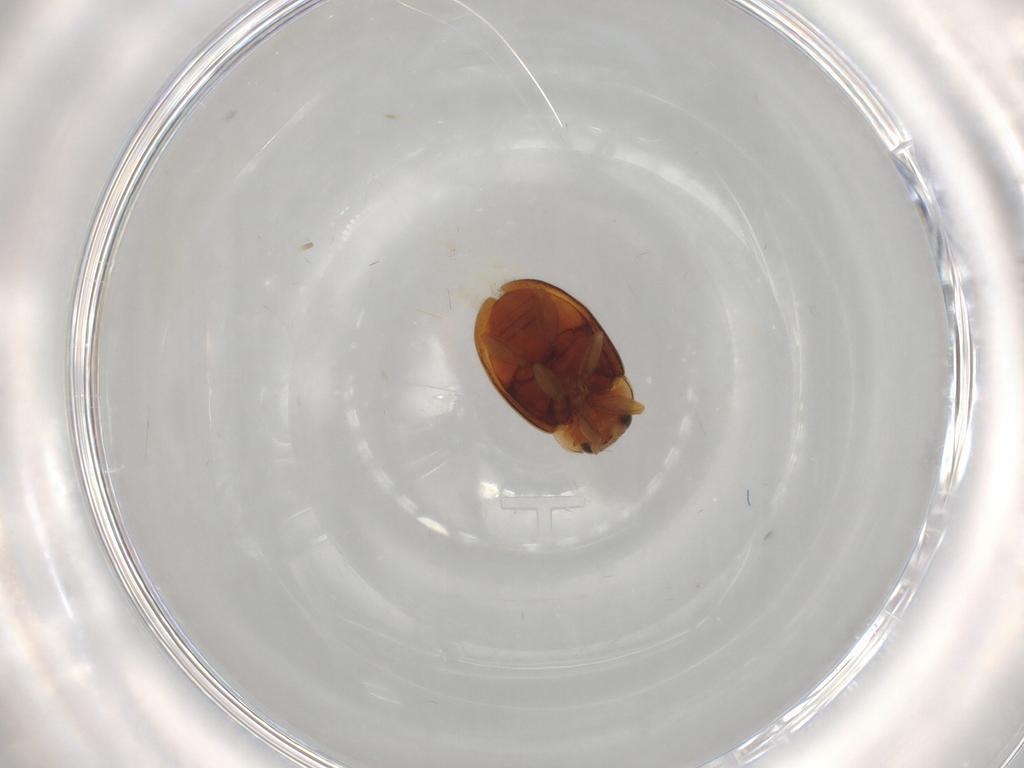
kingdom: Animalia
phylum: Arthropoda
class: Insecta
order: Coleoptera
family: Coccinellidae
